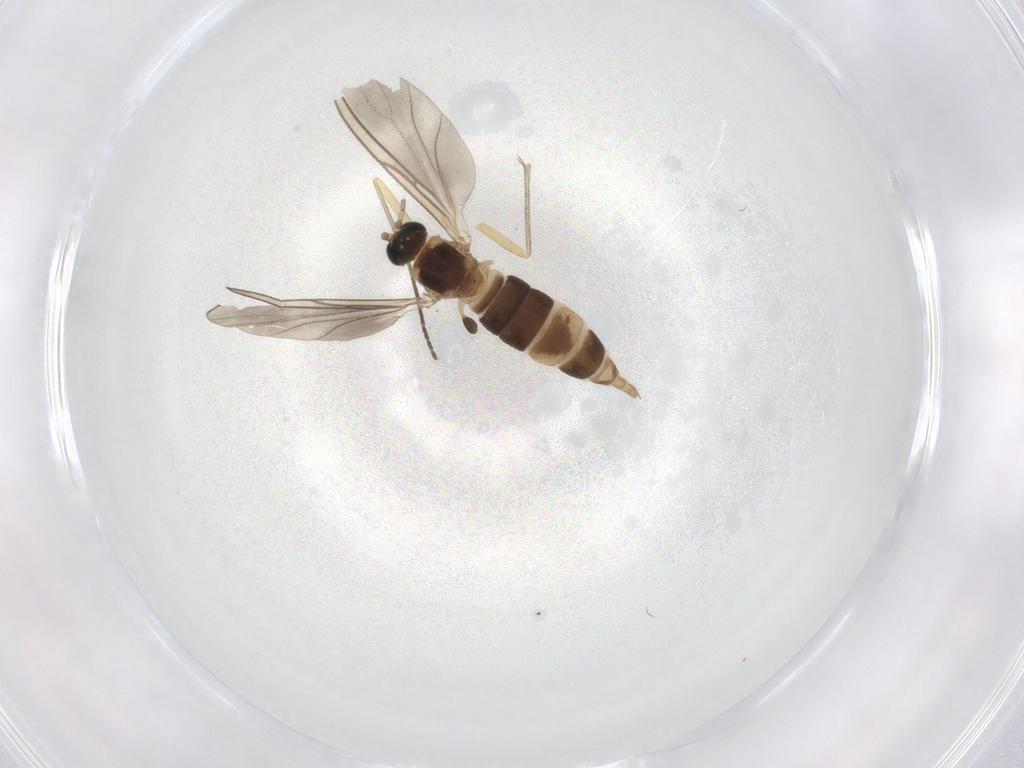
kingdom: Animalia
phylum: Arthropoda
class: Insecta
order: Diptera
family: Sciaridae
